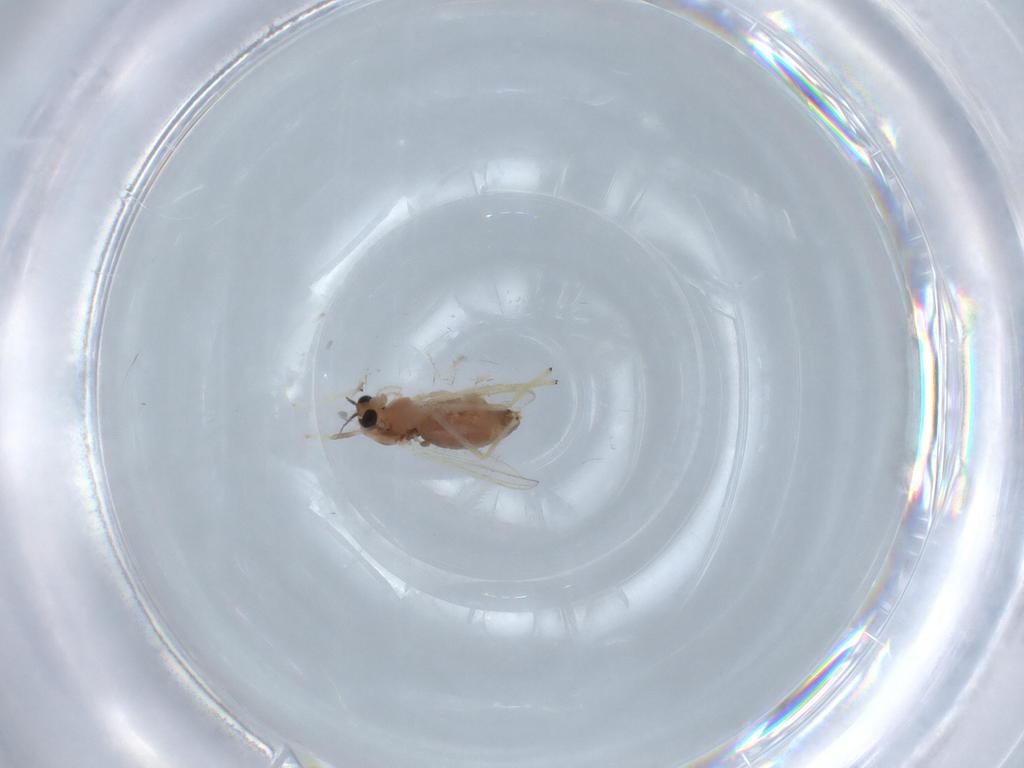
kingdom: Animalia
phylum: Arthropoda
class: Insecta
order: Diptera
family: Chironomidae
